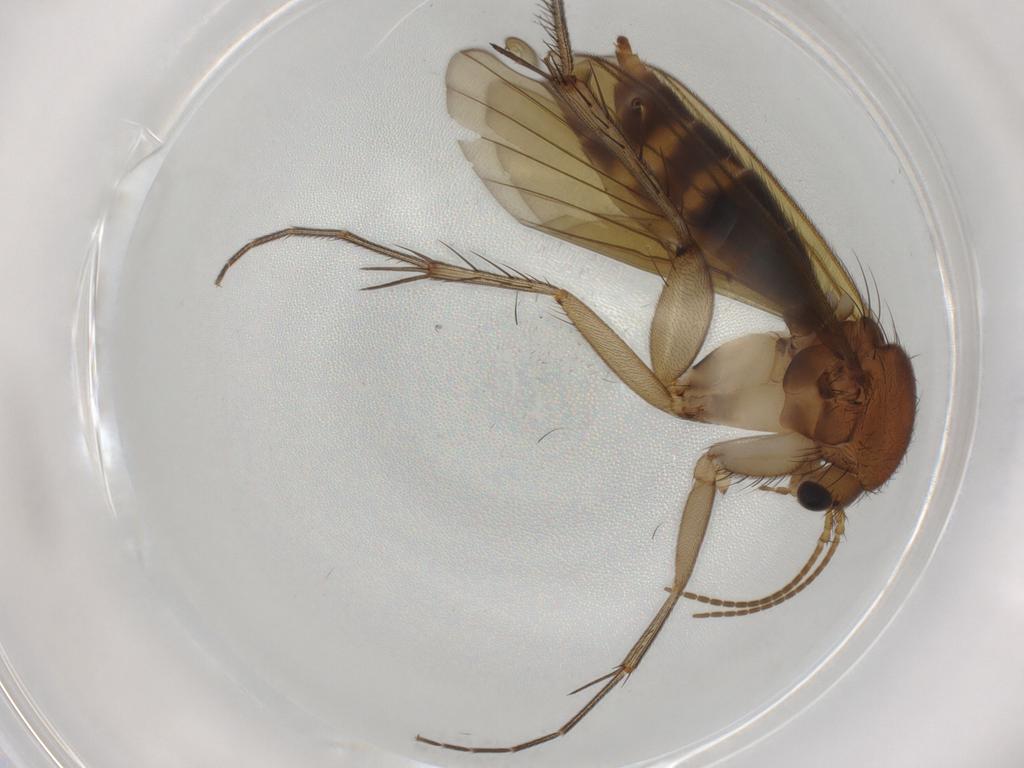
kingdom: Animalia
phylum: Arthropoda
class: Insecta
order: Diptera
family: Mycetophilidae
